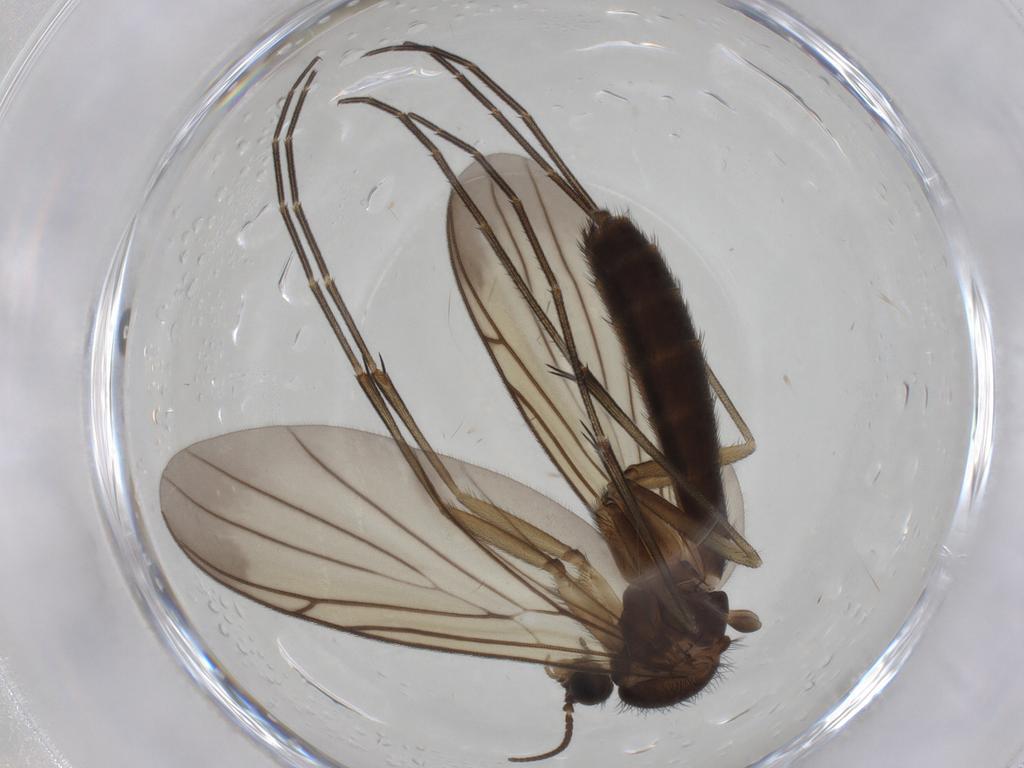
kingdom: Animalia
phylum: Arthropoda
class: Insecta
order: Diptera
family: Keroplatidae
